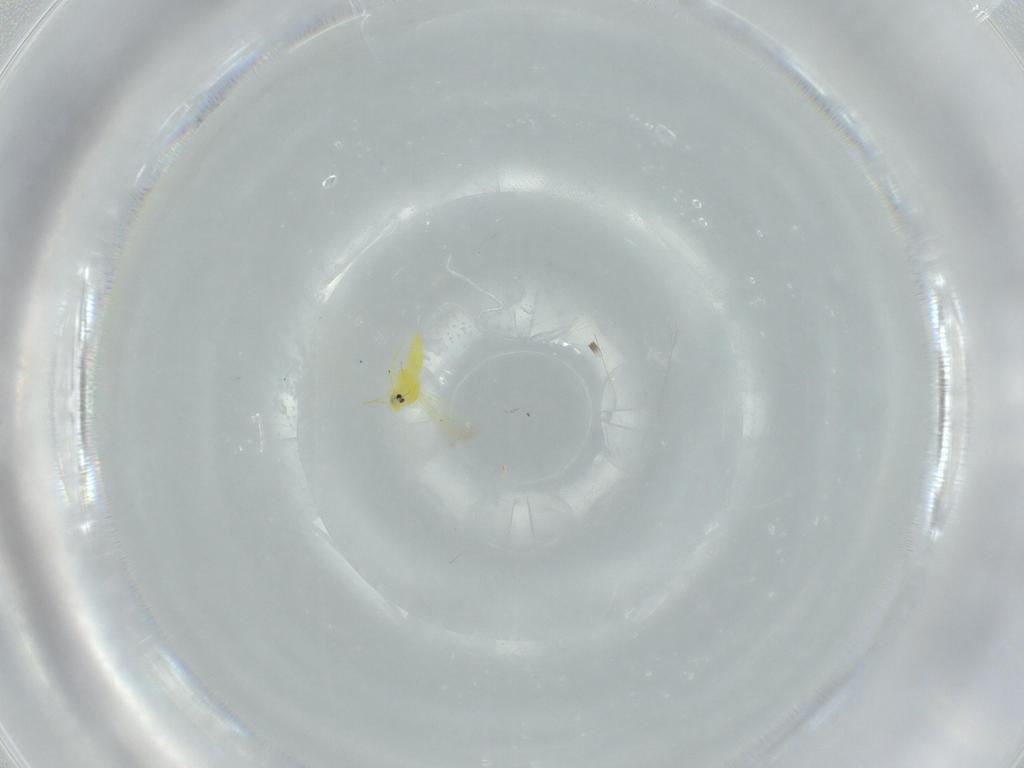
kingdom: Animalia
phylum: Arthropoda
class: Insecta
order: Hemiptera
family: Aleyrodidae
